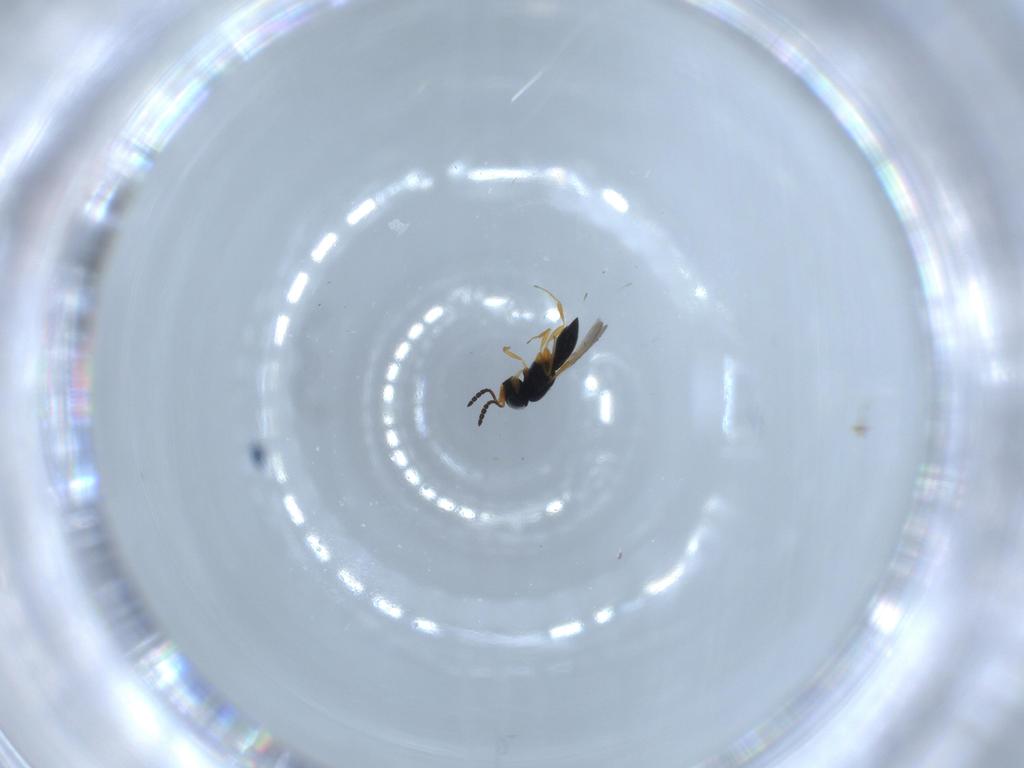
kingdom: Animalia
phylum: Arthropoda
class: Insecta
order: Hymenoptera
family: Scelionidae
